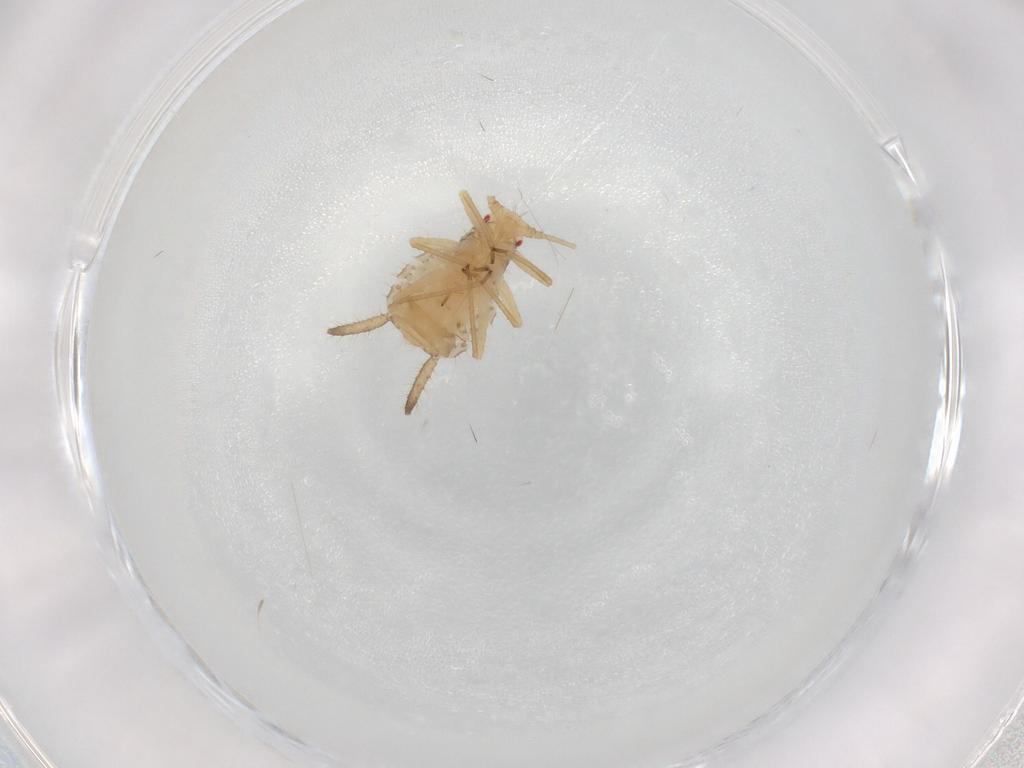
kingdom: Animalia
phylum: Arthropoda
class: Insecta
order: Hemiptera
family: Aphididae
